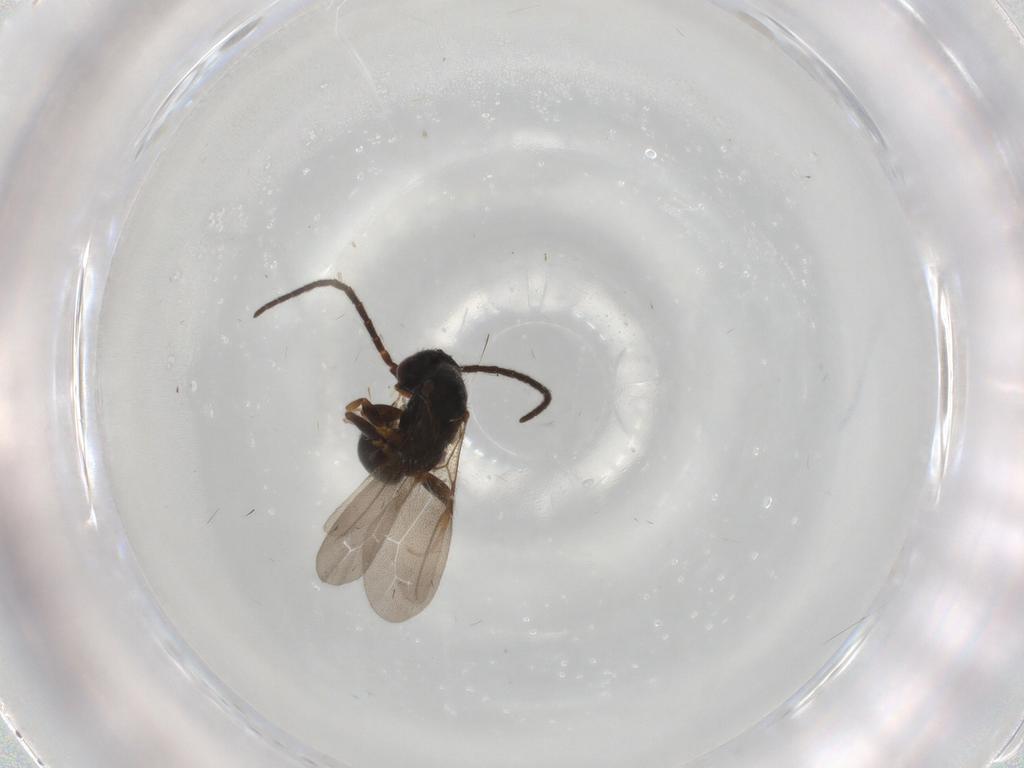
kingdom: Animalia
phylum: Arthropoda
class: Insecta
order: Hymenoptera
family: Bethylidae
